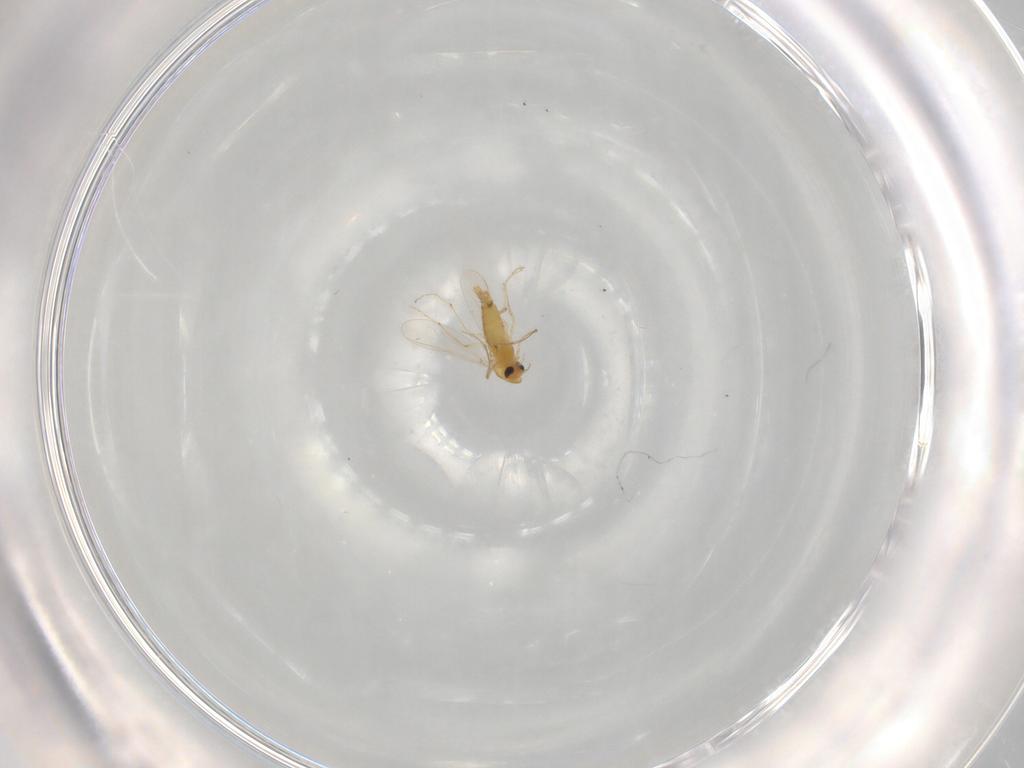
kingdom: Animalia
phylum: Arthropoda
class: Insecta
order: Diptera
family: Chironomidae
